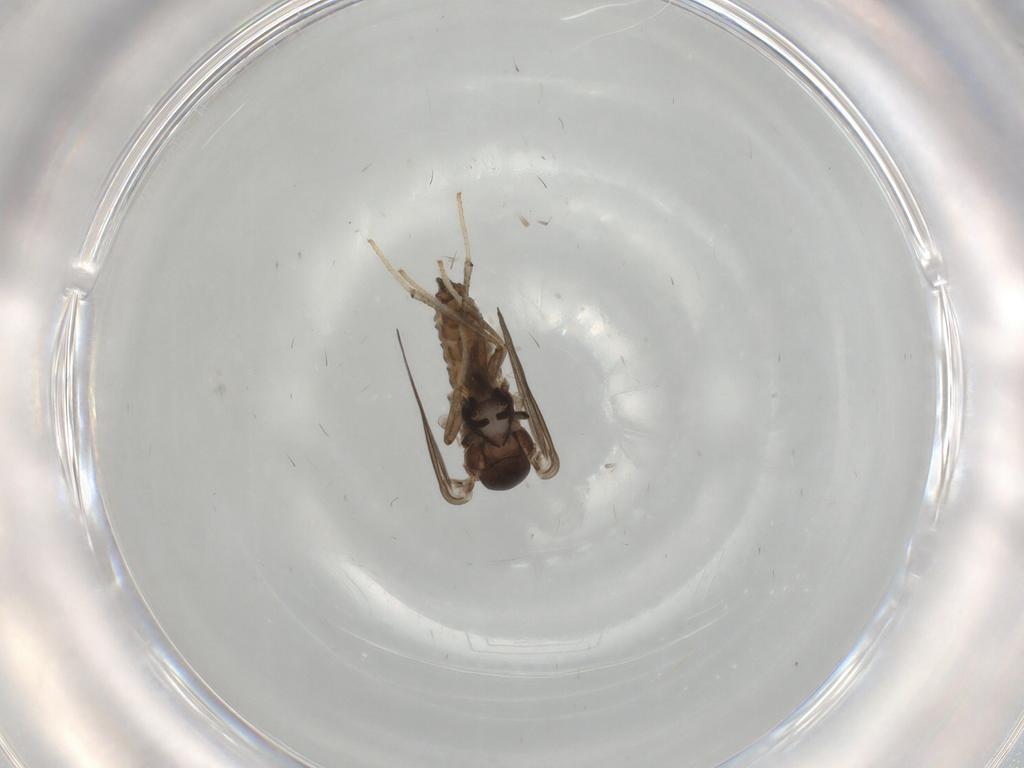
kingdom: Animalia
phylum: Arthropoda
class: Insecta
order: Diptera
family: Psychodidae
